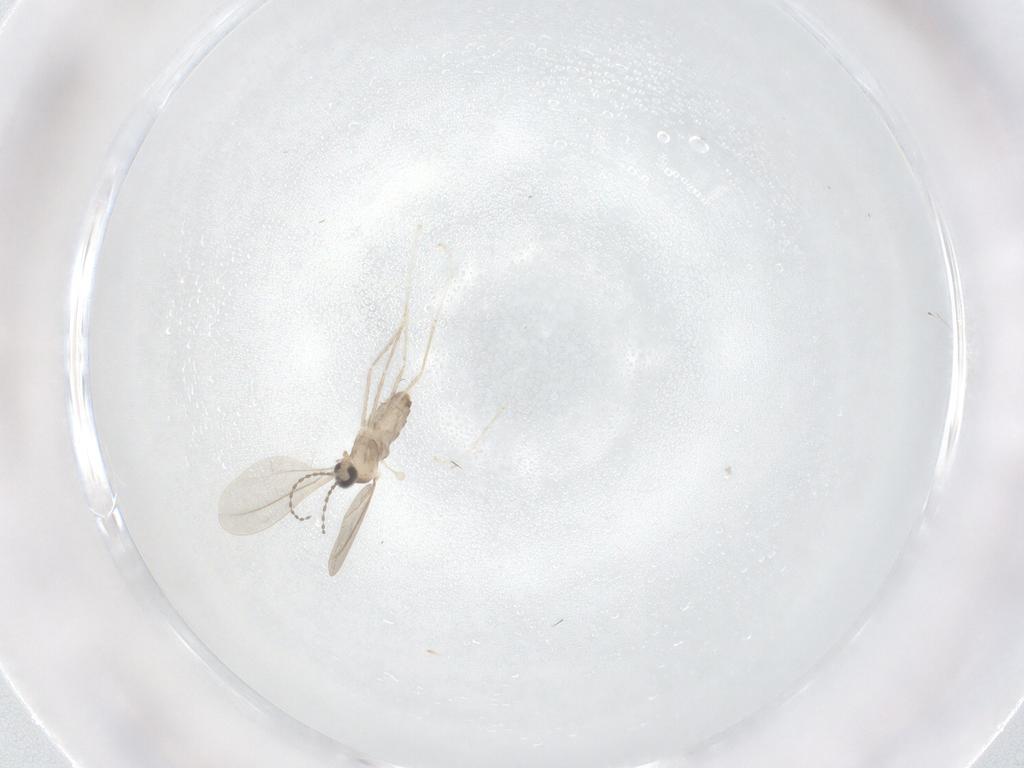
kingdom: Animalia
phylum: Arthropoda
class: Insecta
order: Diptera
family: Cecidomyiidae
